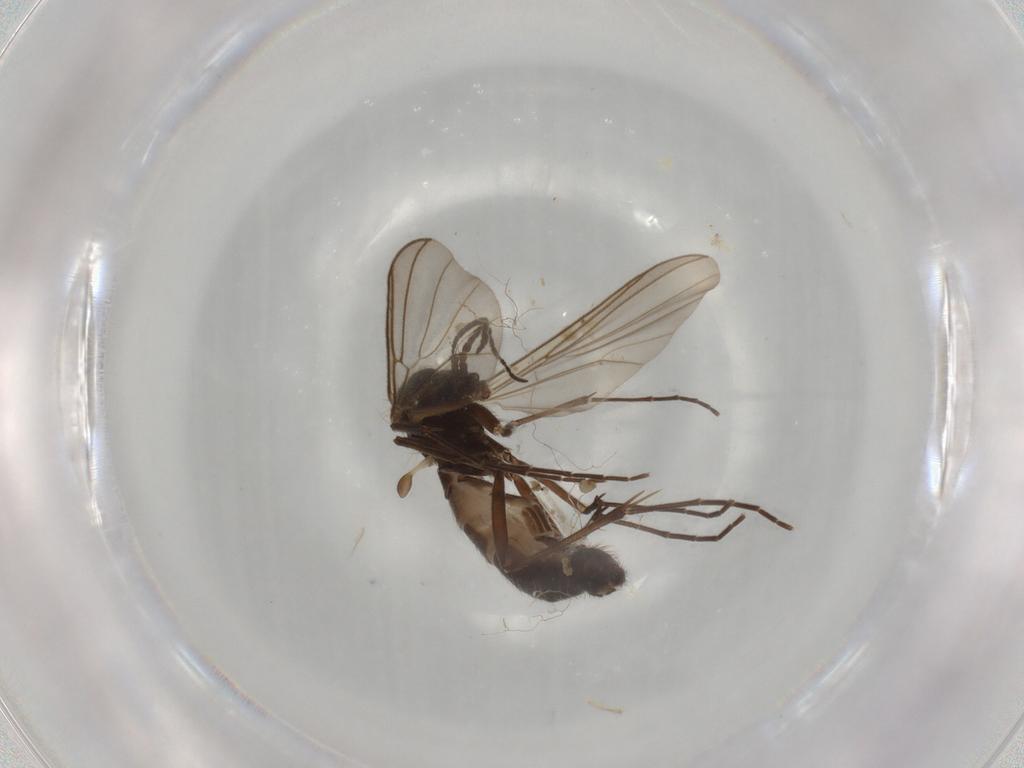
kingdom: Animalia
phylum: Arthropoda
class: Insecta
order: Diptera
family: Mycetophilidae
